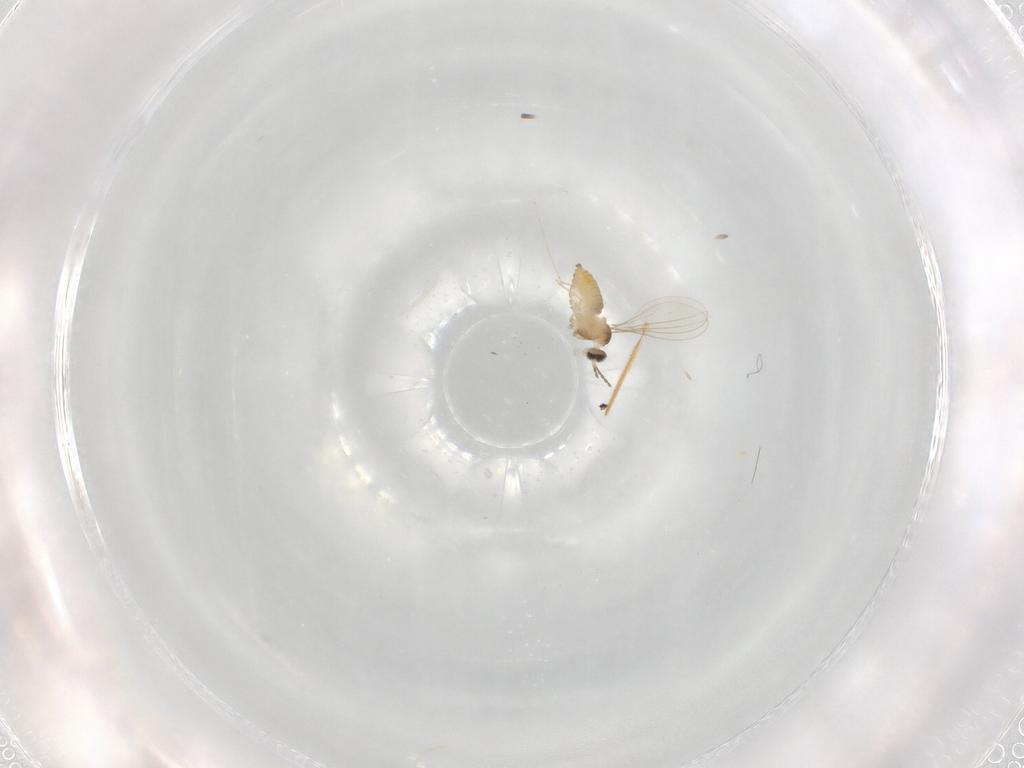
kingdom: Animalia
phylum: Arthropoda
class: Insecta
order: Diptera
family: Cecidomyiidae
